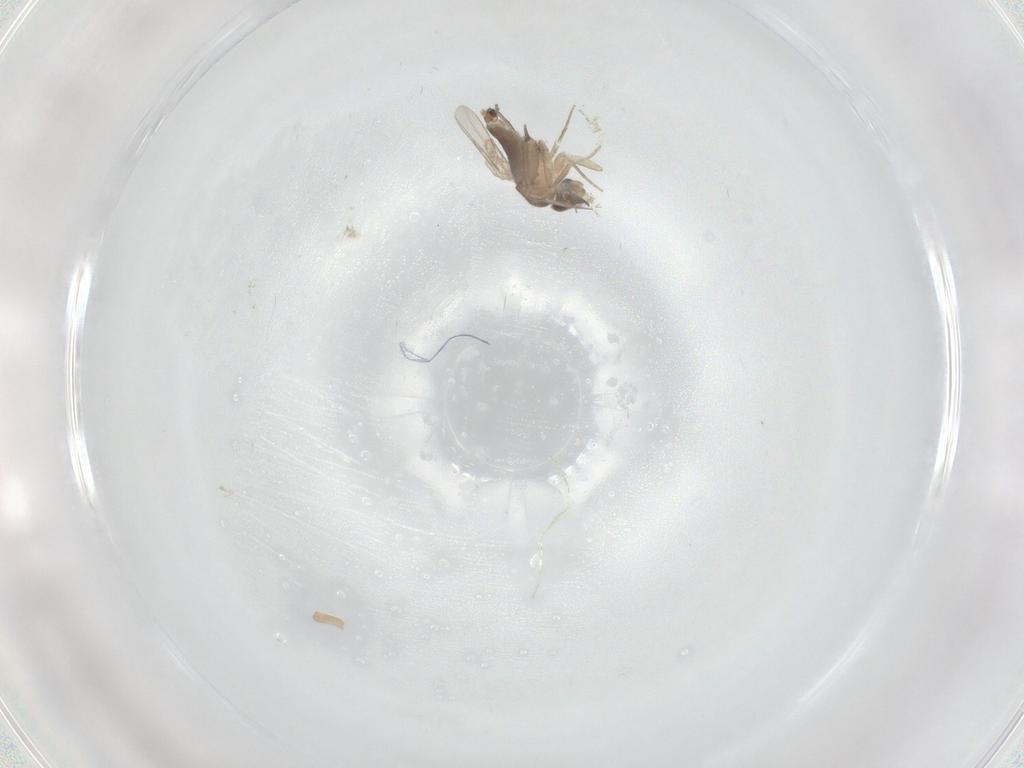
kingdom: Animalia
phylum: Arthropoda
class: Insecta
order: Diptera
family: Phoridae
